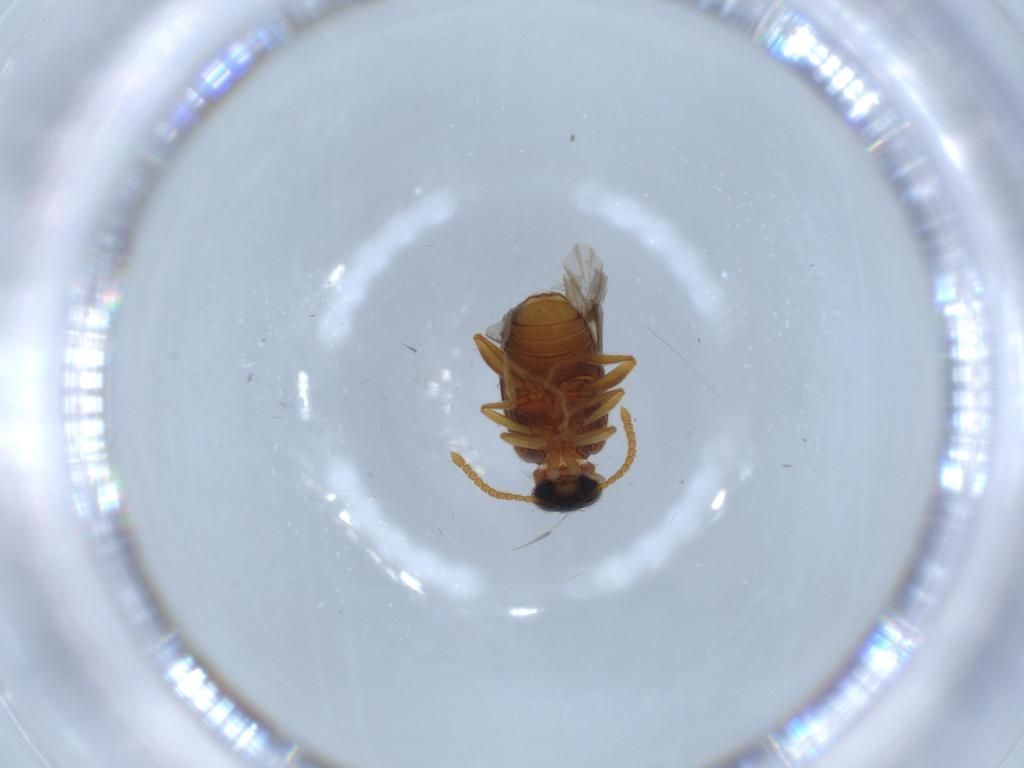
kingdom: Animalia
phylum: Arthropoda
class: Insecta
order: Coleoptera
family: Aderidae
